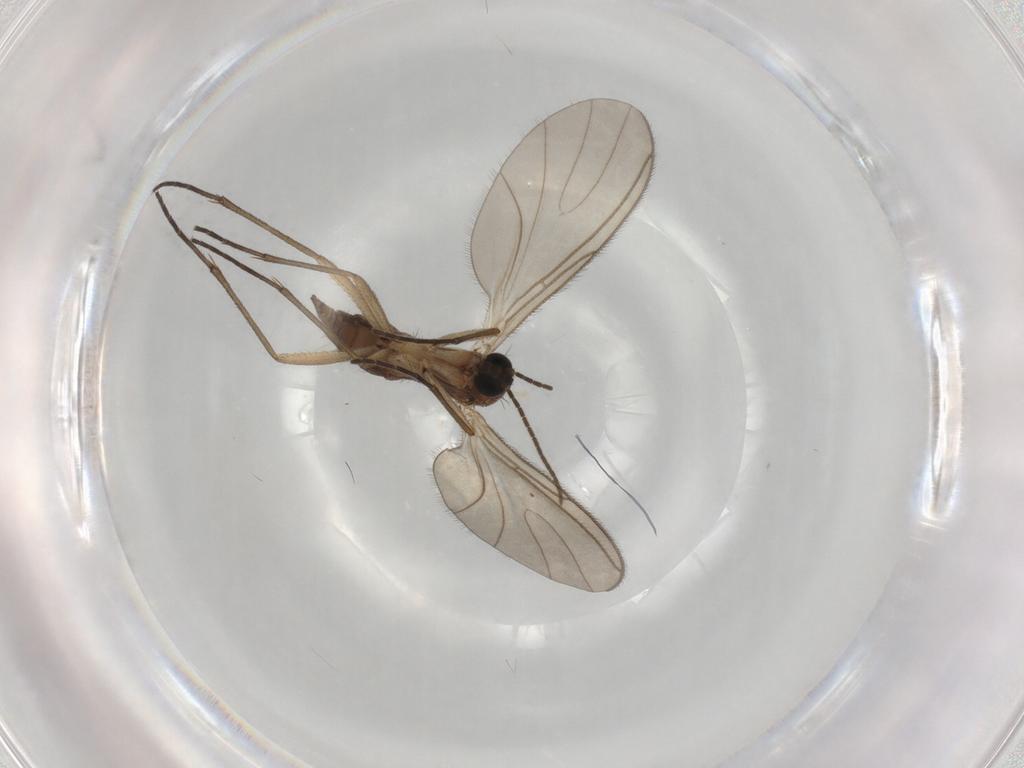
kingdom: Animalia
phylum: Arthropoda
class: Insecta
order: Diptera
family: Sciaridae
